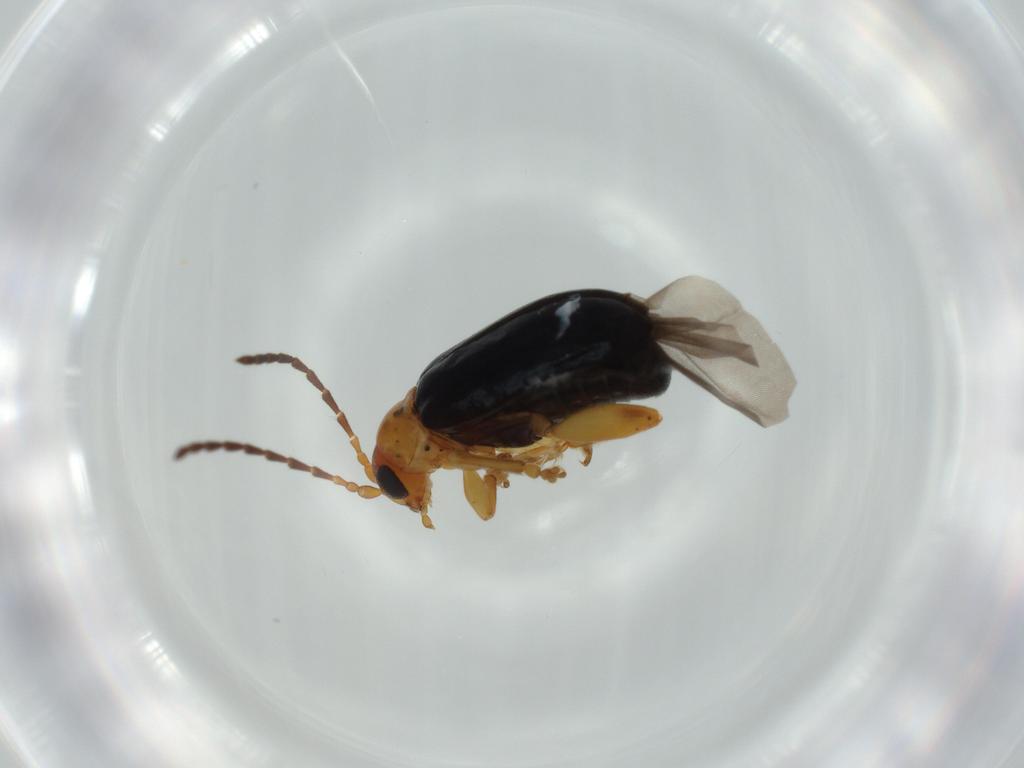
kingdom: Animalia
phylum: Arthropoda
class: Insecta
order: Coleoptera
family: Chrysomelidae
